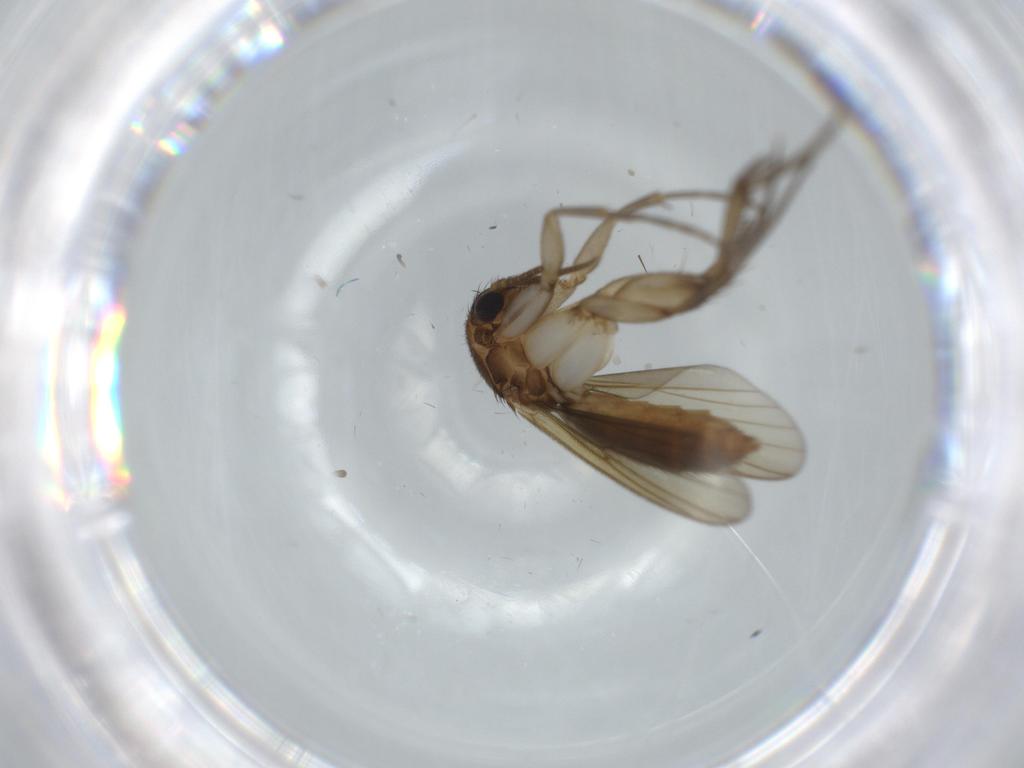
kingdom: Animalia
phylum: Arthropoda
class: Insecta
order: Diptera
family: Mycetophilidae
